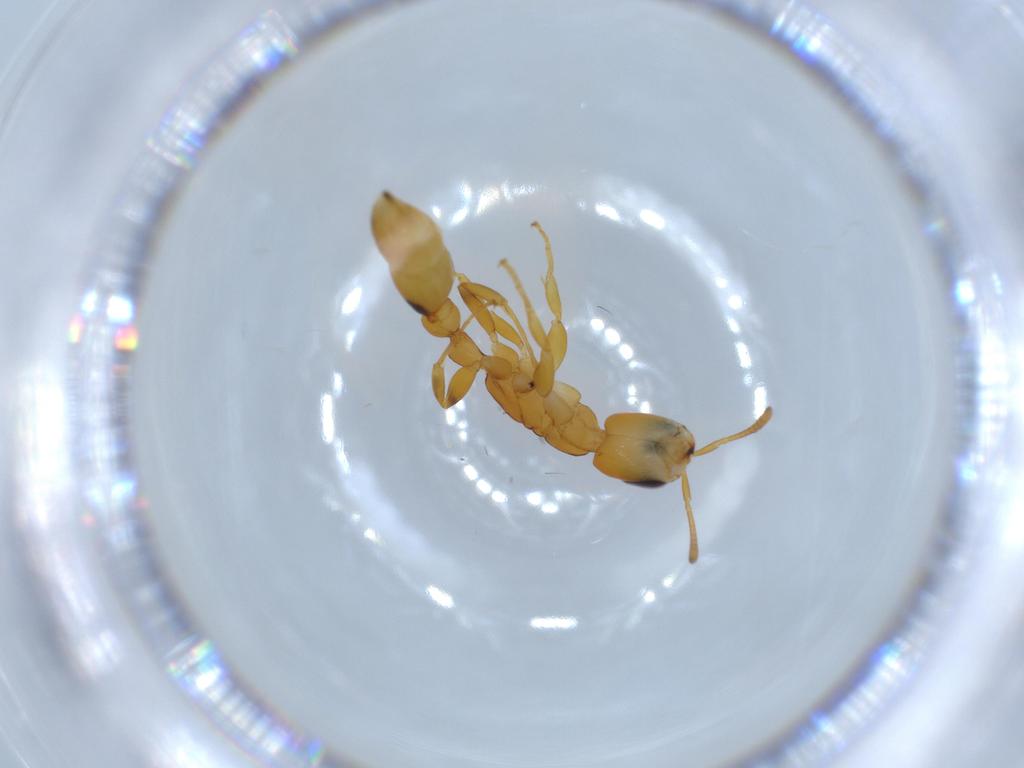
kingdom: Animalia
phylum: Arthropoda
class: Insecta
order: Hymenoptera
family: Formicidae
